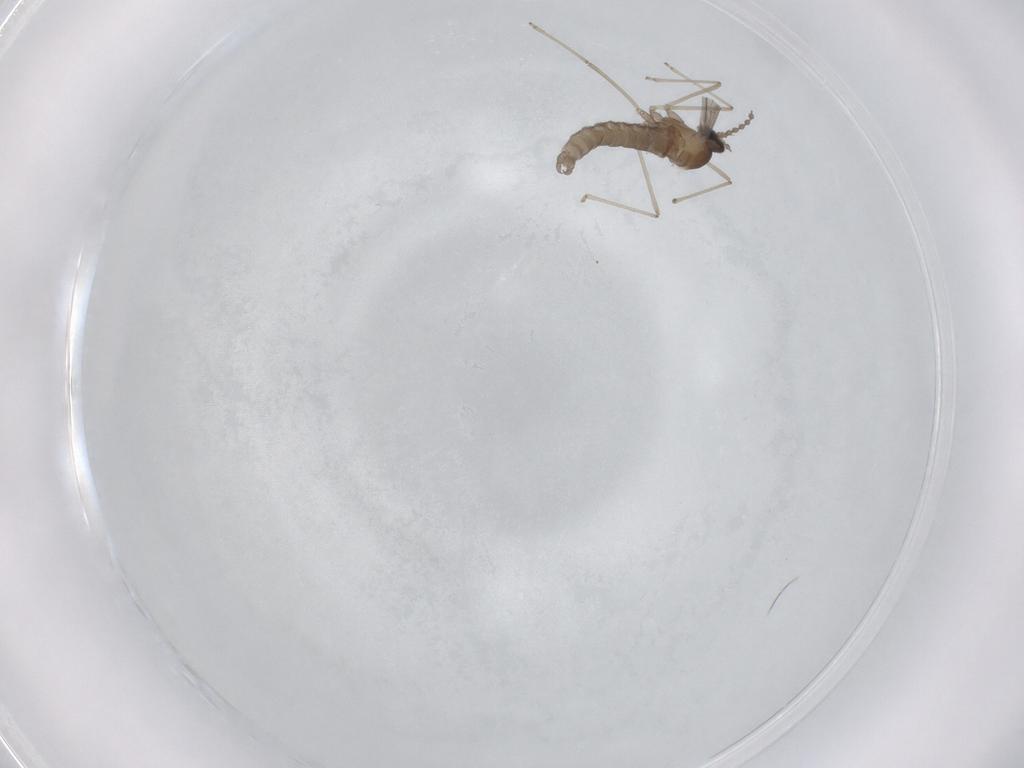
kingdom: Animalia
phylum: Arthropoda
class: Insecta
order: Diptera
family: Cecidomyiidae
